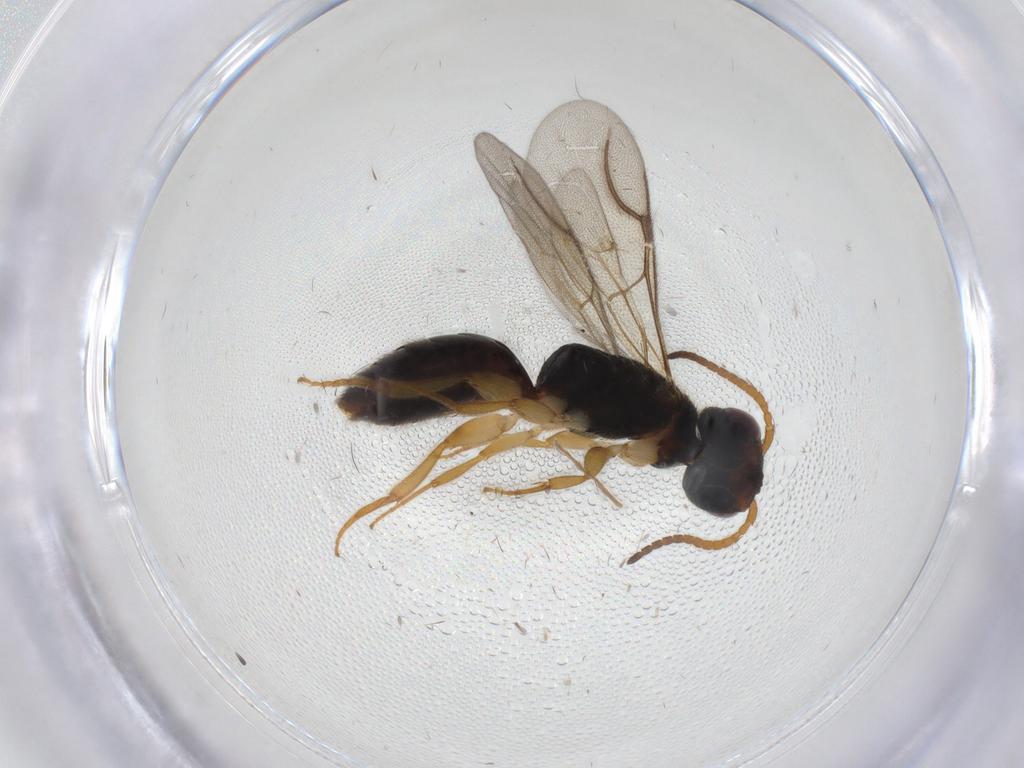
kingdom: Animalia
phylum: Arthropoda
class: Insecta
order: Hymenoptera
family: Bethylidae
